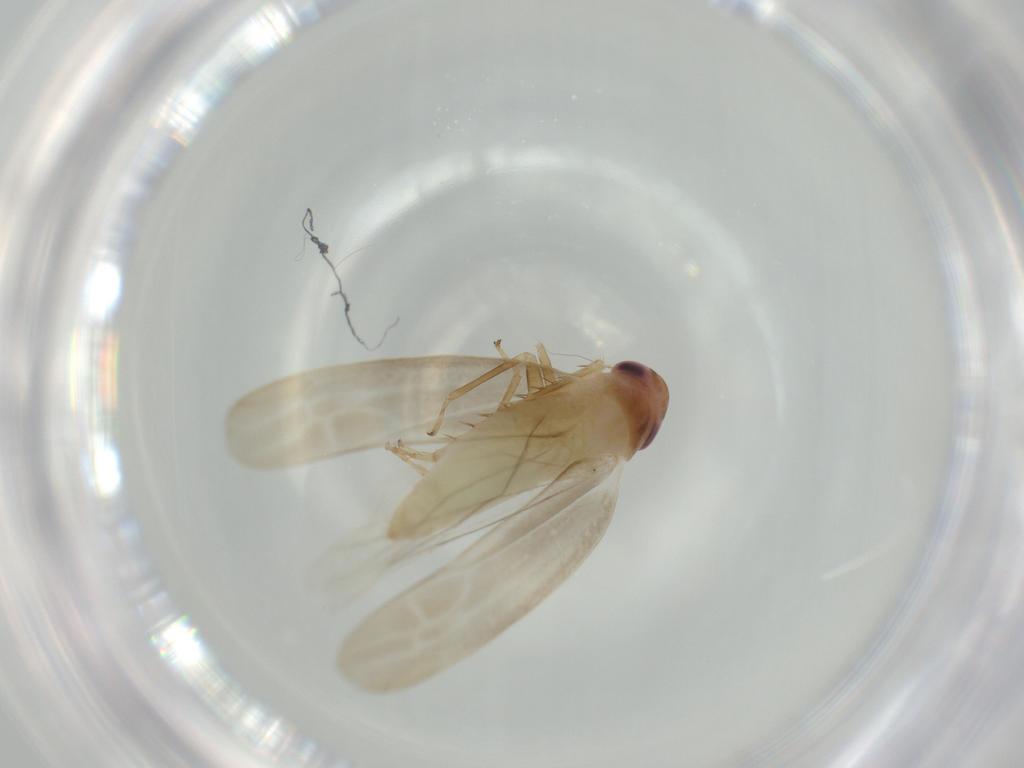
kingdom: Animalia
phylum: Arthropoda
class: Insecta
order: Hemiptera
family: Cicadellidae
